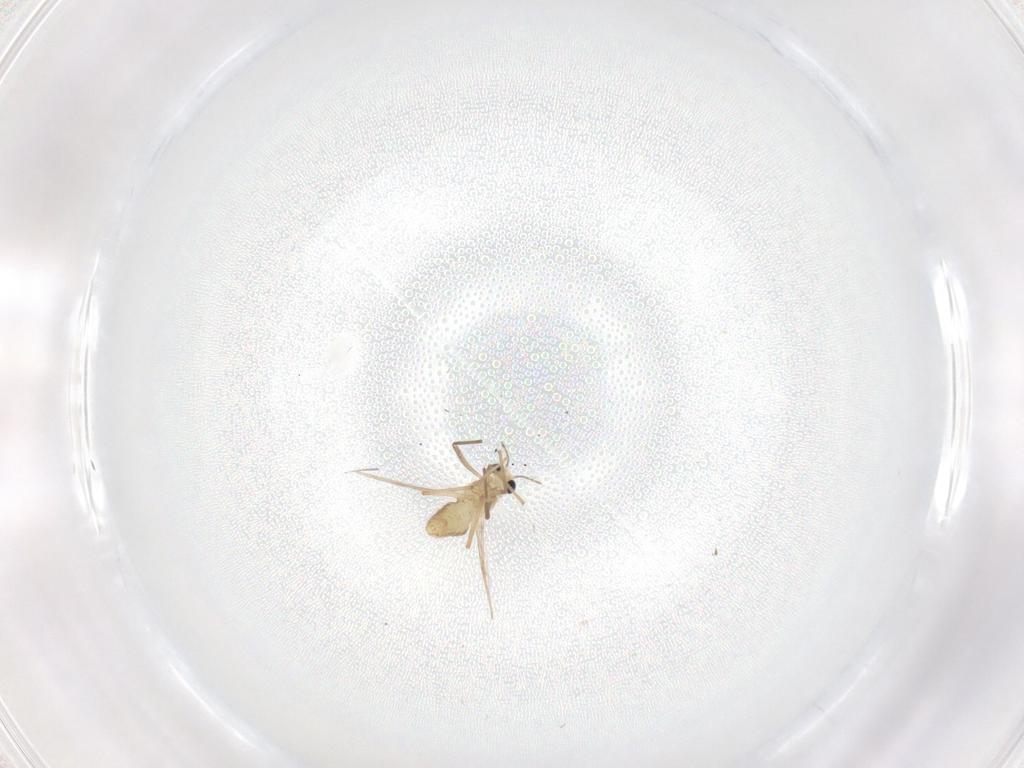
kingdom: Animalia
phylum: Arthropoda
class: Insecta
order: Diptera
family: Chironomidae
